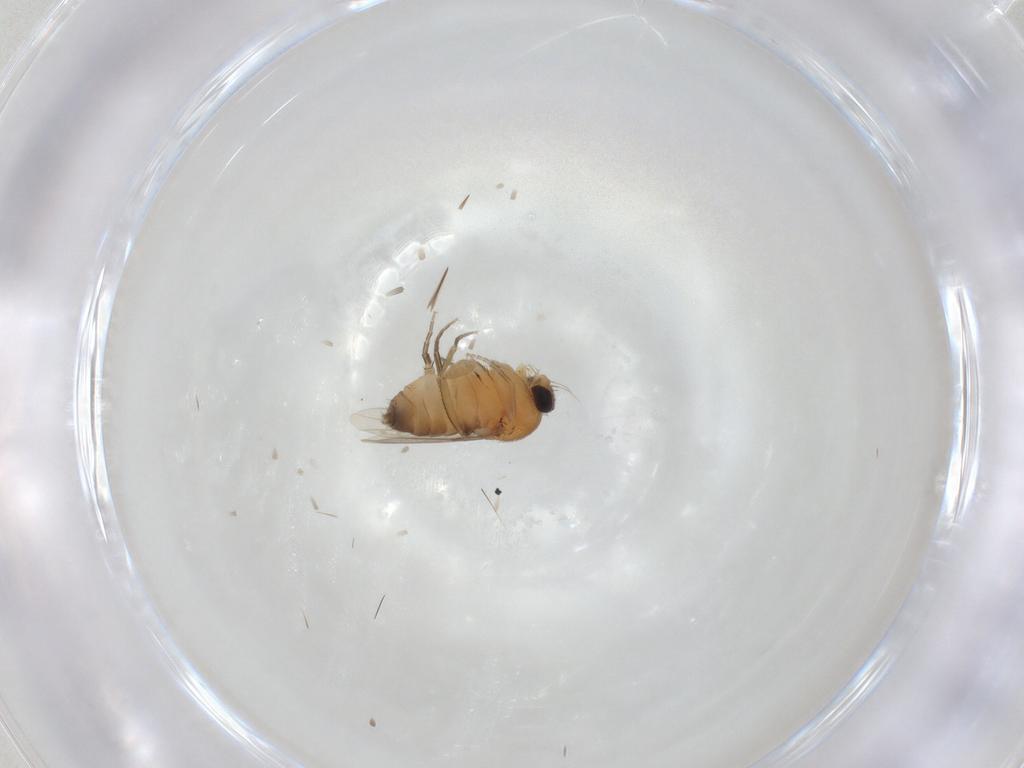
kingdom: Animalia
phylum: Arthropoda
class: Insecta
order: Diptera
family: Phoridae
